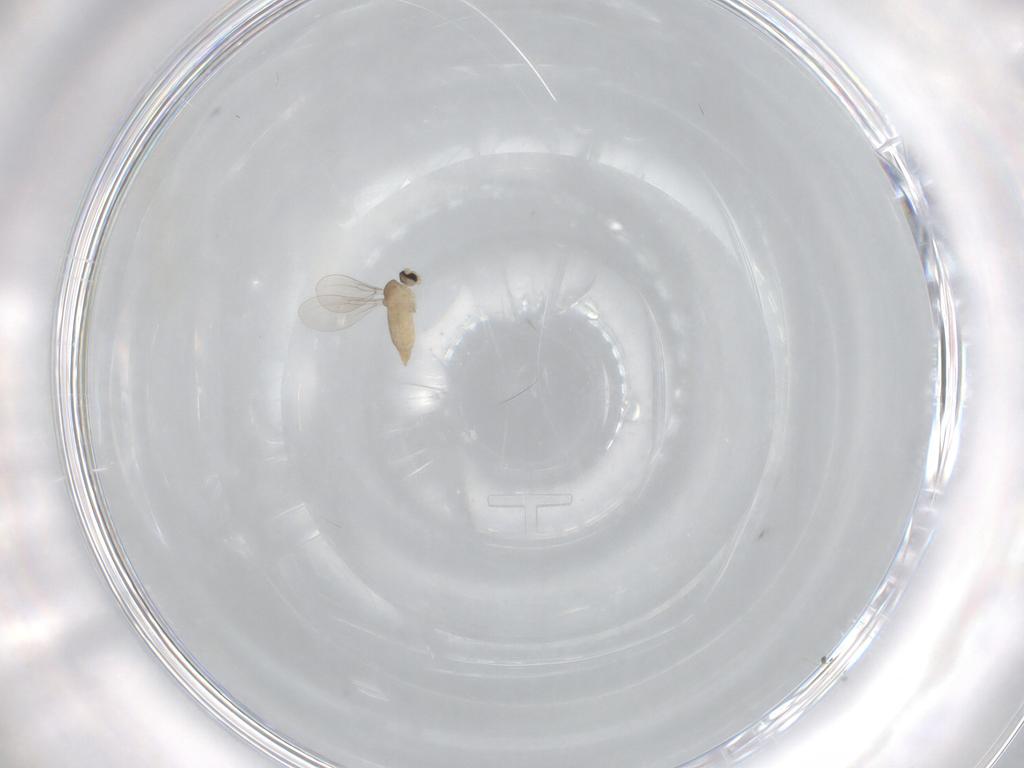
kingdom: Animalia
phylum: Arthropoda
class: Insecta
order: Diptera
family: Cecidomyiidae
